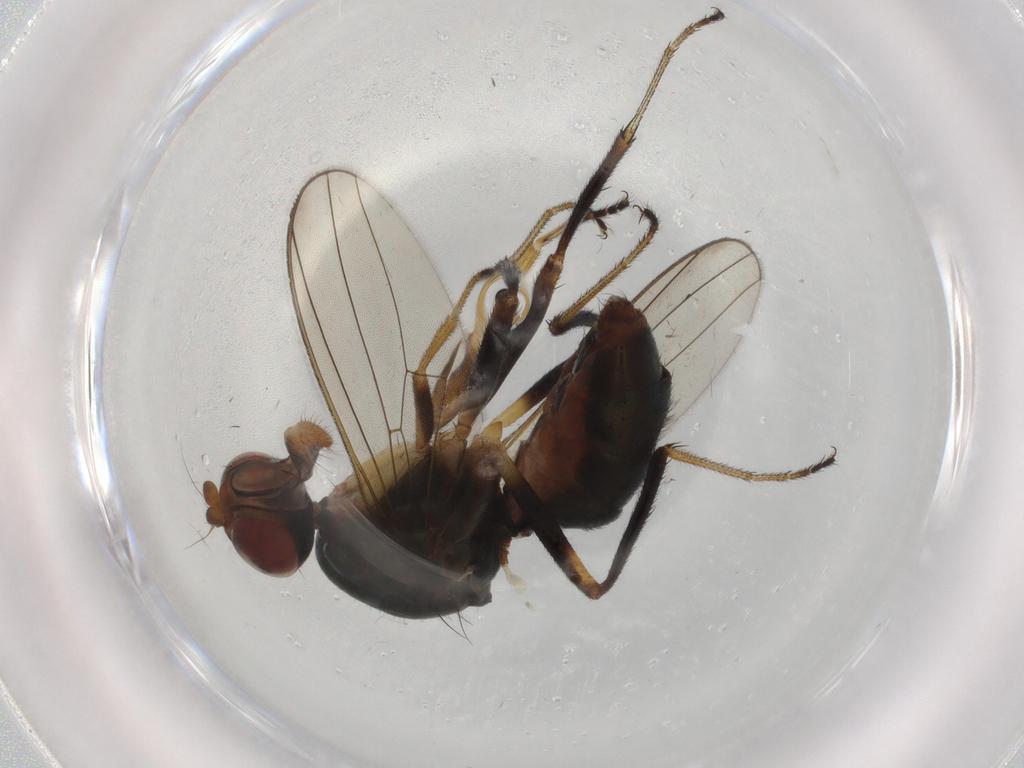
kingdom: Animalia
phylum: Arthropoda
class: Insecta
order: Diptera
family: Sepsidae
